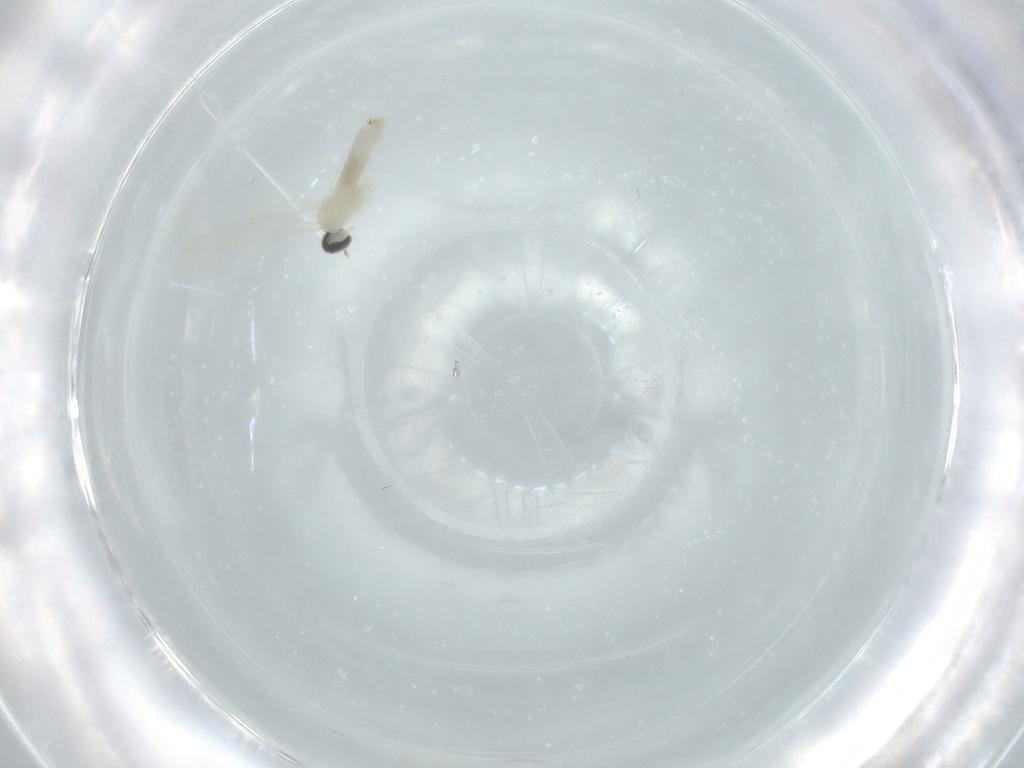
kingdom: Animalia
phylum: Arthropoda
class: Insecta
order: Diptera
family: Cecidomyiidae
